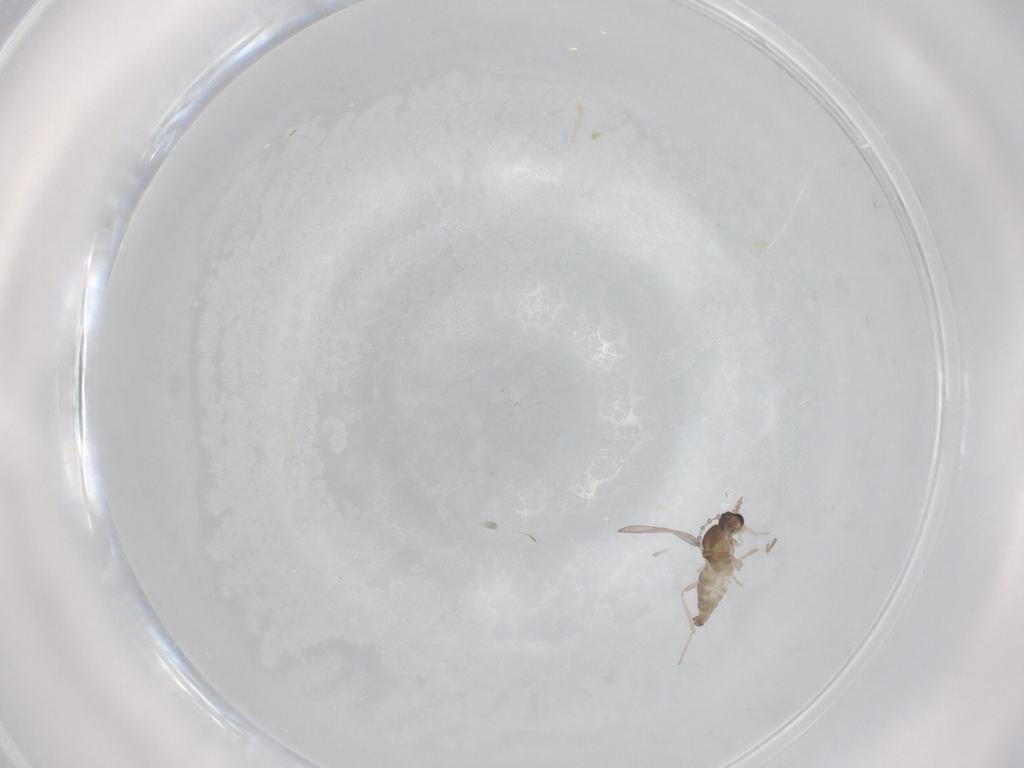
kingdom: Animalia
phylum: Arthropoda
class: Insecta
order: Diptera
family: Cecidomyiidae
